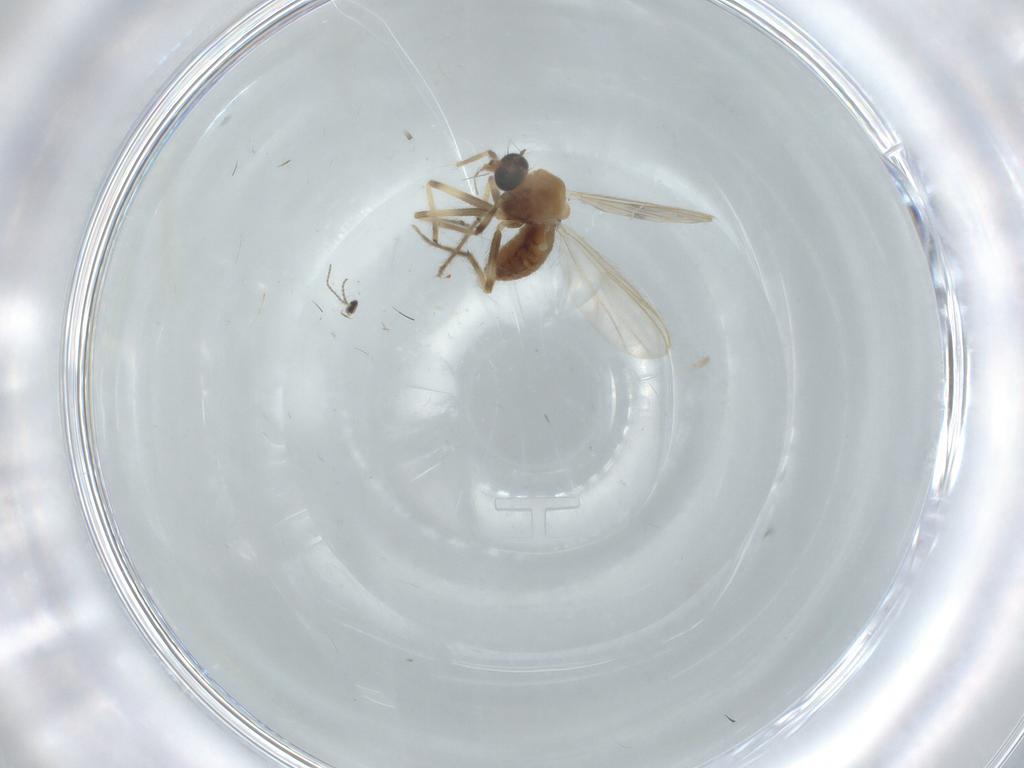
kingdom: Animalia
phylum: Arthropoda
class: Insecta
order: Diptera
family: Chironomidae
